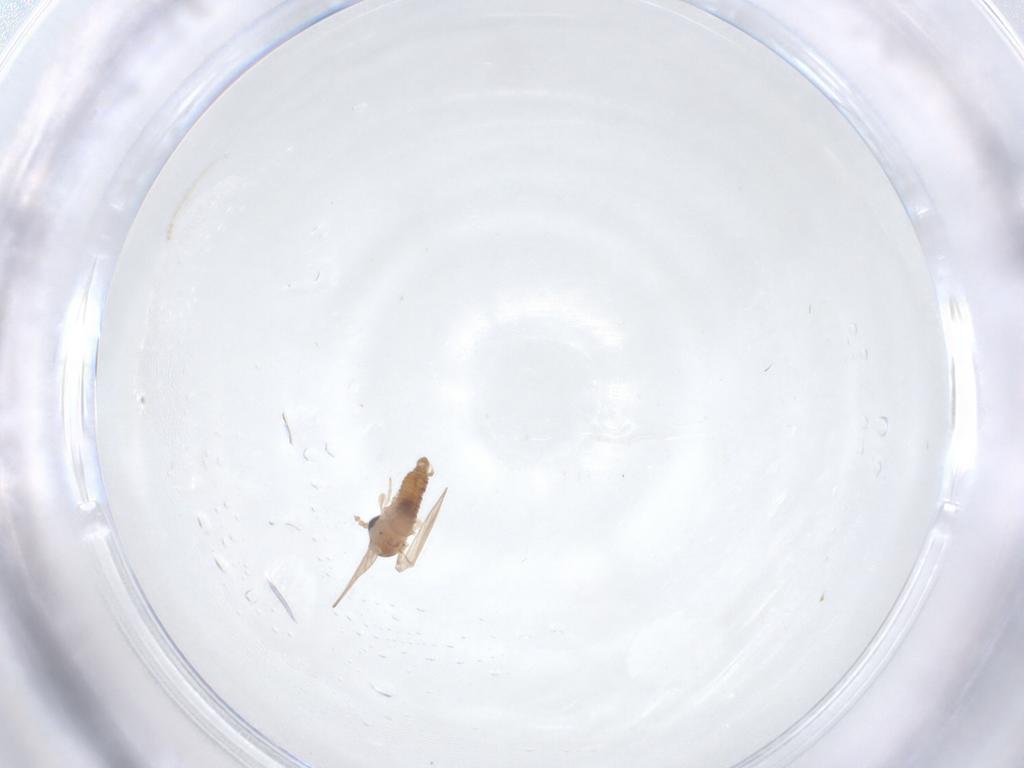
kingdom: Animalia
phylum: Arthropoda
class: Insecta
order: Diptera
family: Psychodidae
